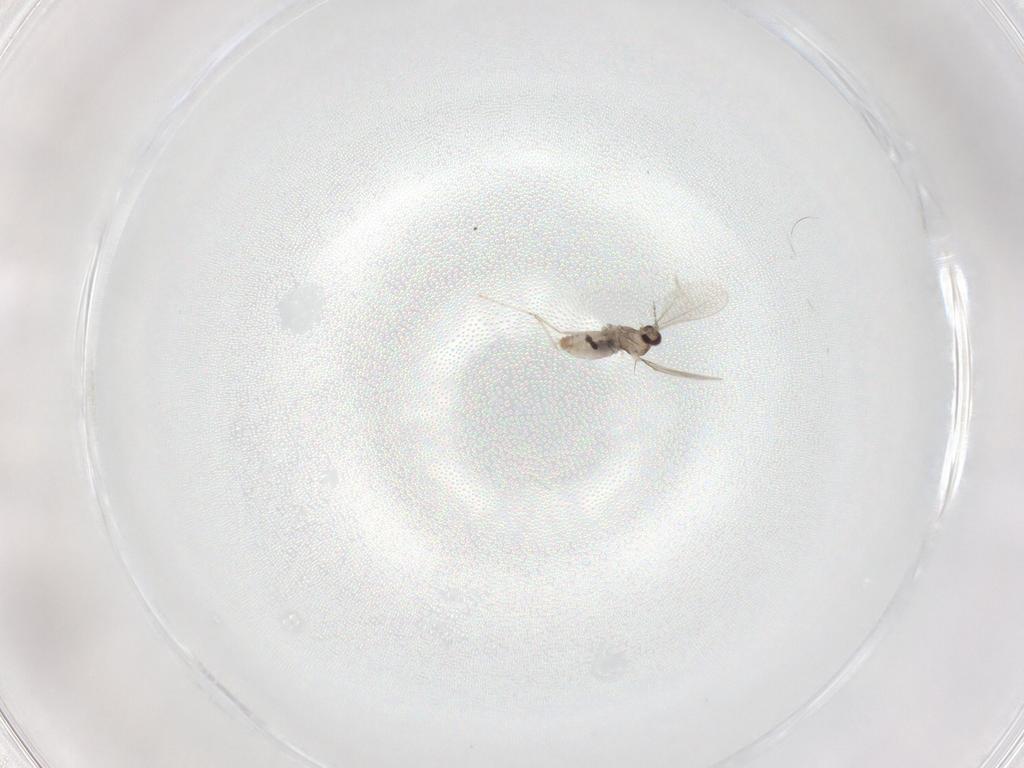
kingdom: Animalia
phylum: Arthropoda
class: Insecta
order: Diptera
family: Cecidomyiidae
